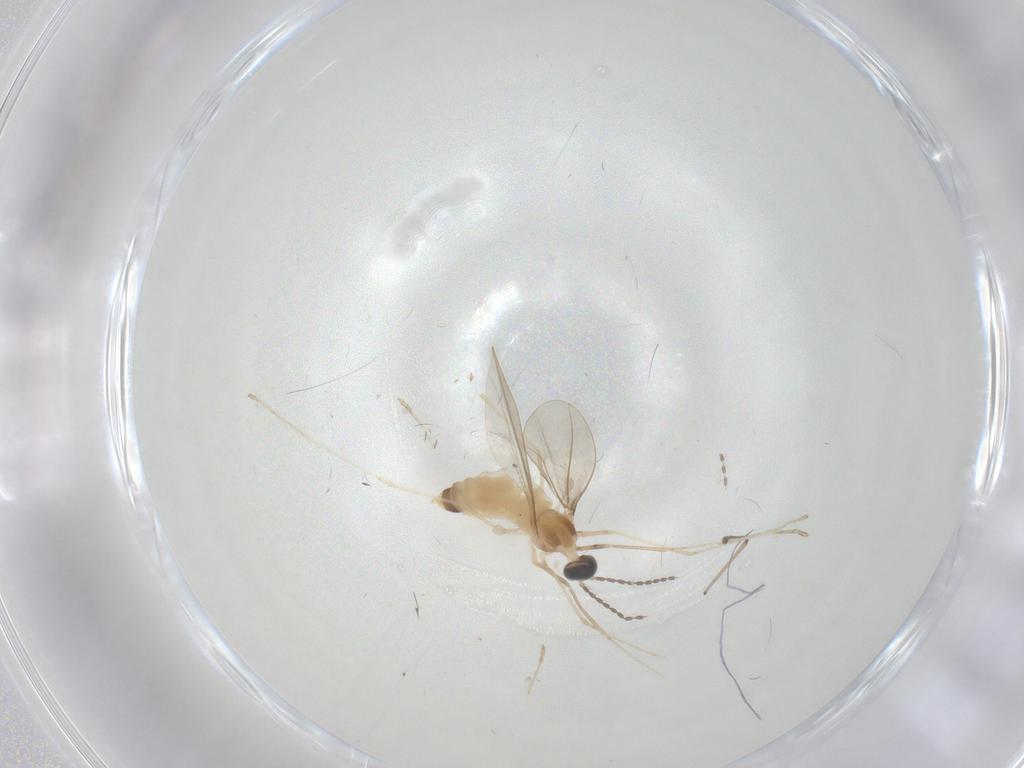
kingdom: Animalia
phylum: Arthropoda
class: Insecta
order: Diptera
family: Cecidomyiidae
